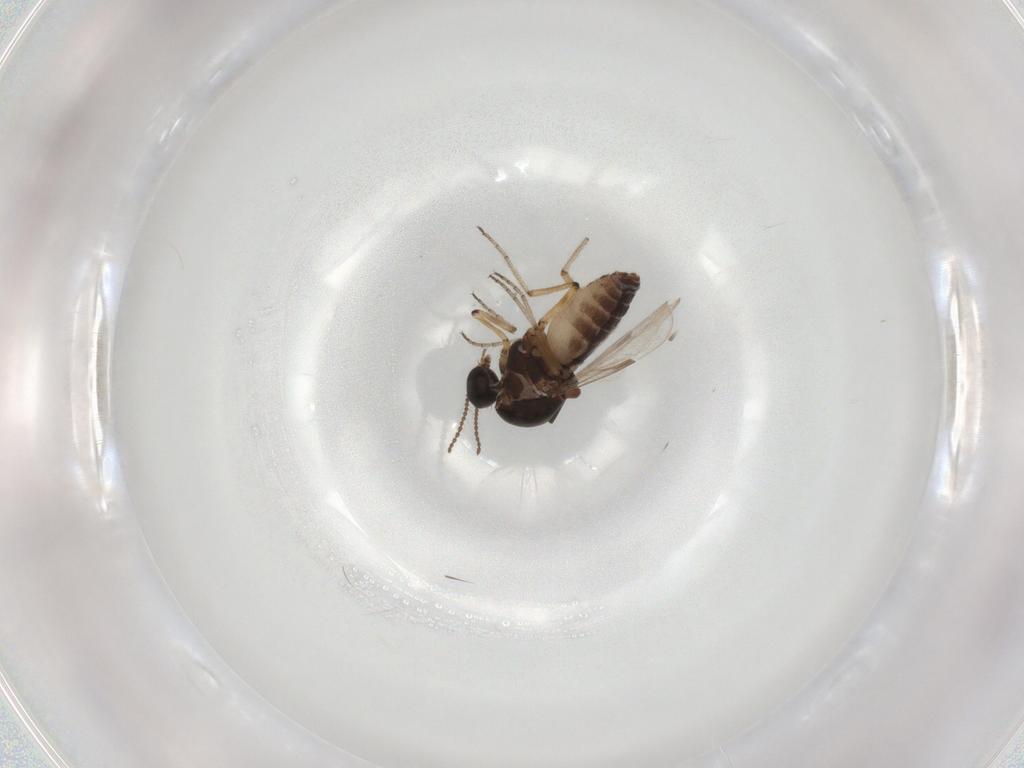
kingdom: Animalia
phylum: Arthropoda
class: Insecta
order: Diptera
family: Ceratopogonidae
